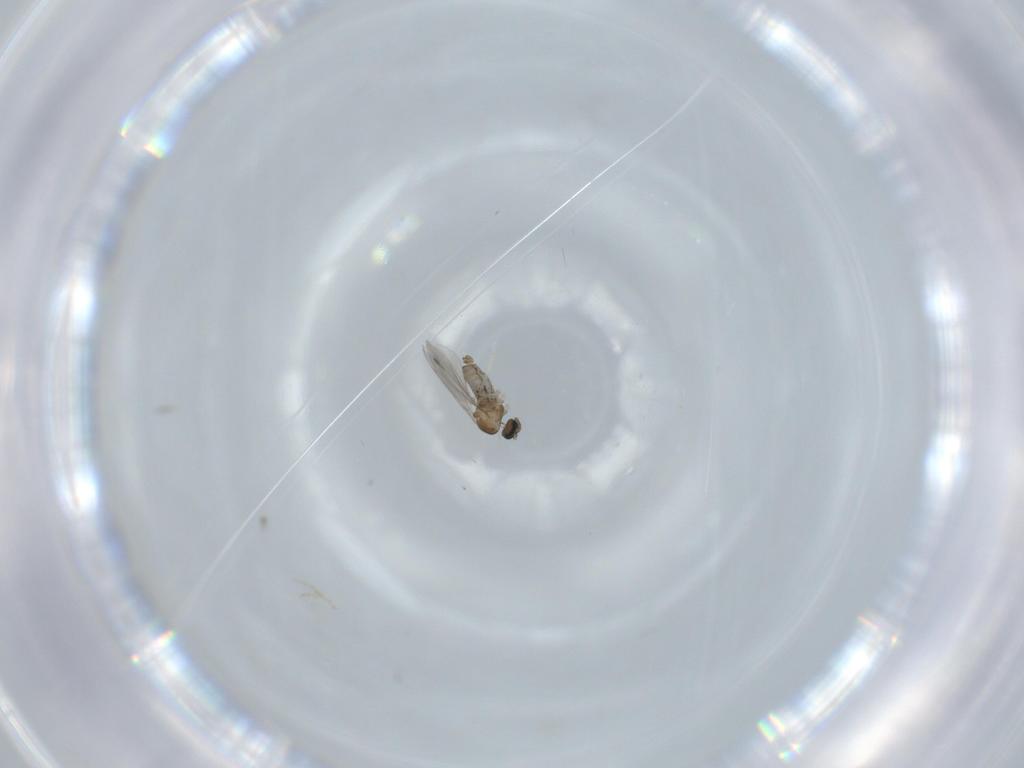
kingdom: Animalia
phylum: Arthropoda
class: Insecta
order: Diptera
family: Cecidomyiidae
